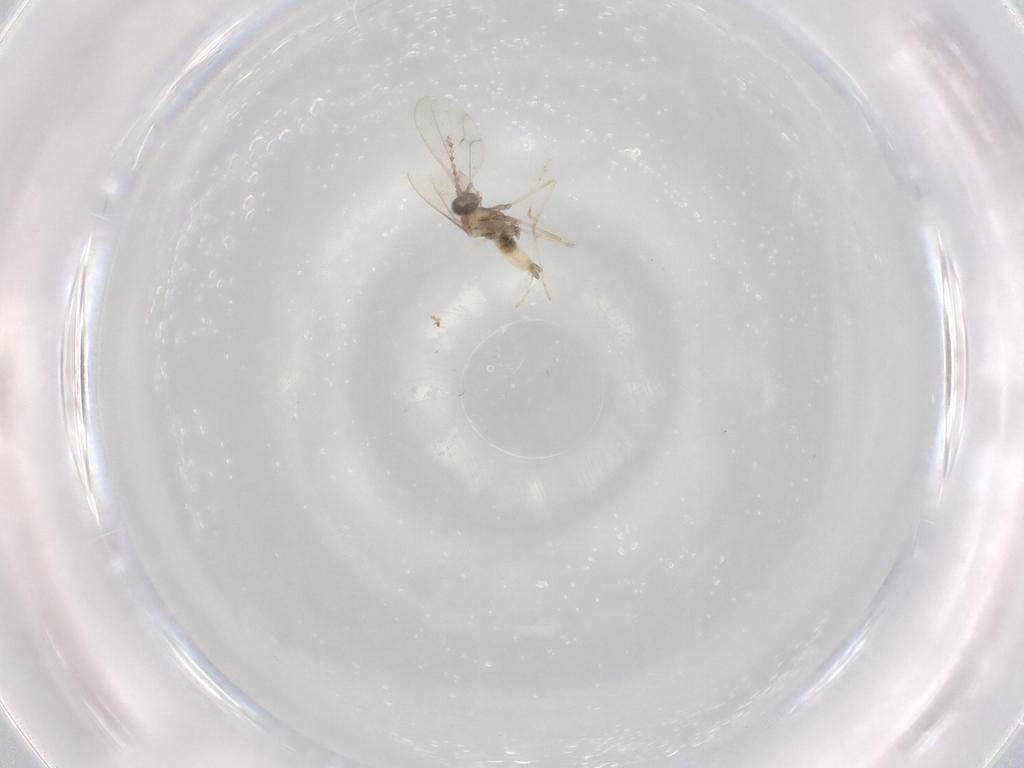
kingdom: Animalia
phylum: Arthropoda
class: Insecta
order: Diptera
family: Cecidomyiidae
